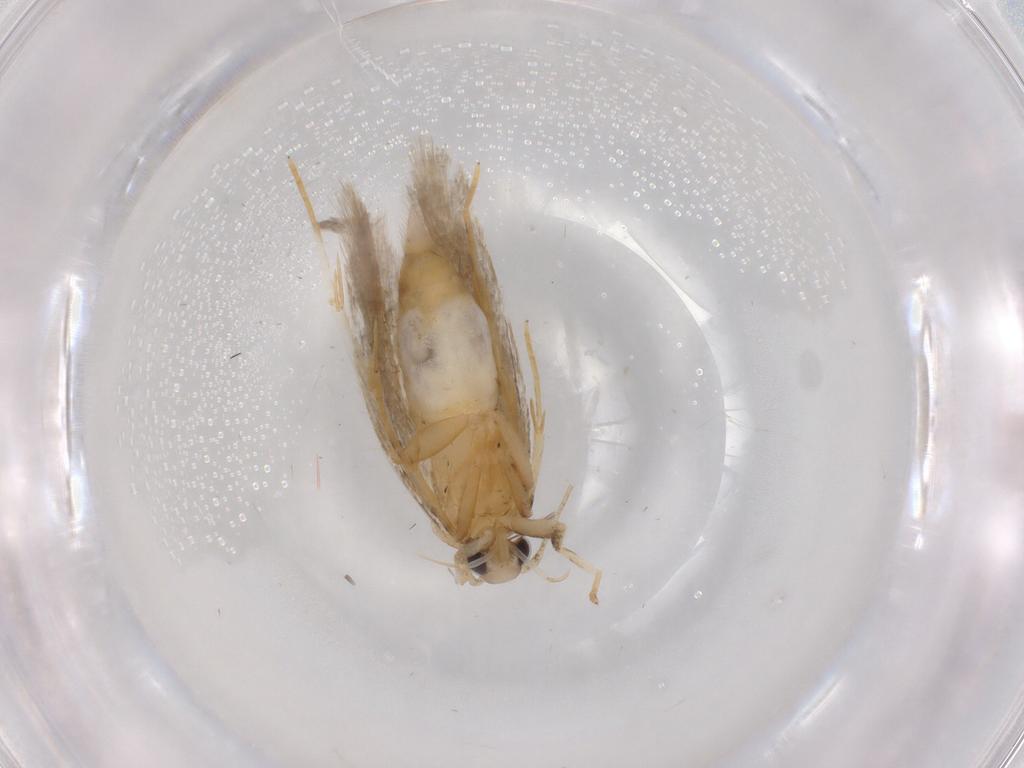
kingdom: Animalia
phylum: Arthropoda
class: Insecta
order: Lepidoptera
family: Autostichidae
